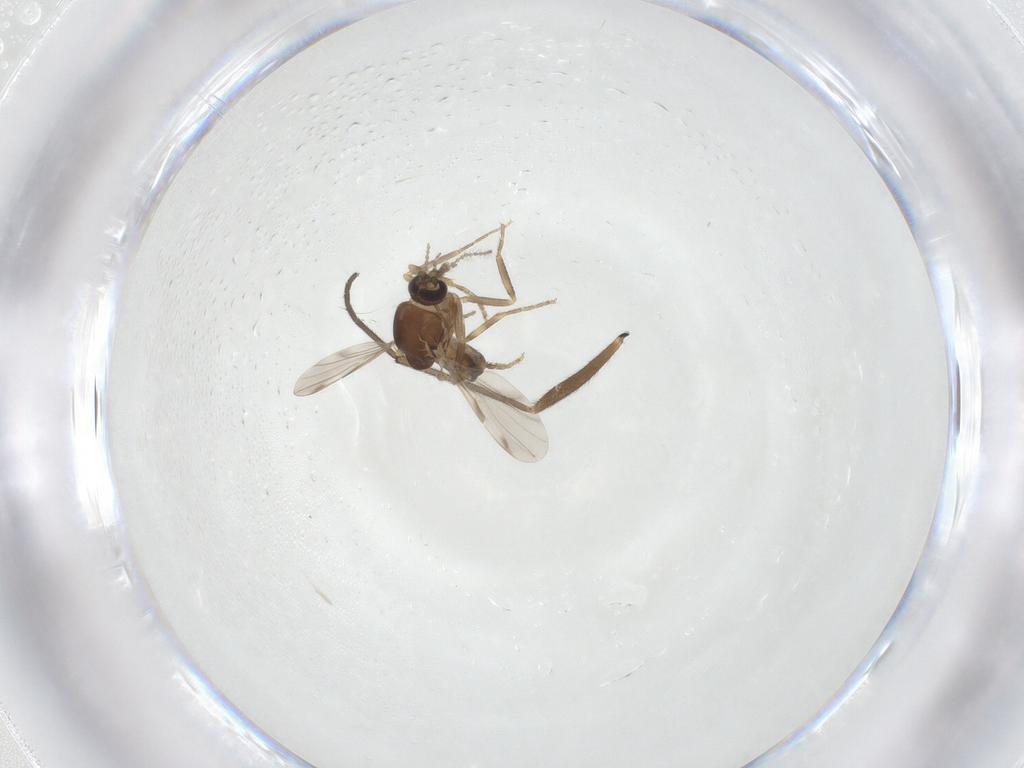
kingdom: Animalia
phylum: Arthropoda
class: Insecta
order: Diptera
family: Ceratopogonidae
